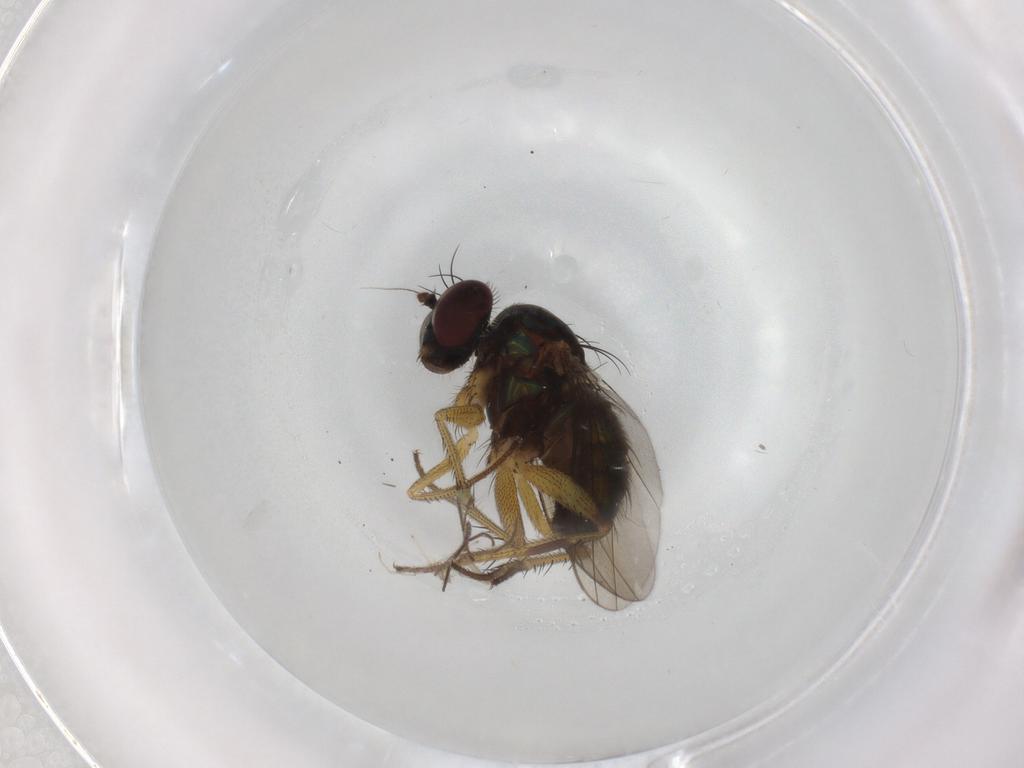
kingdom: Animalia
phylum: Arthropoda
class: Insecta
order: Diptera
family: Dolichopodidae
